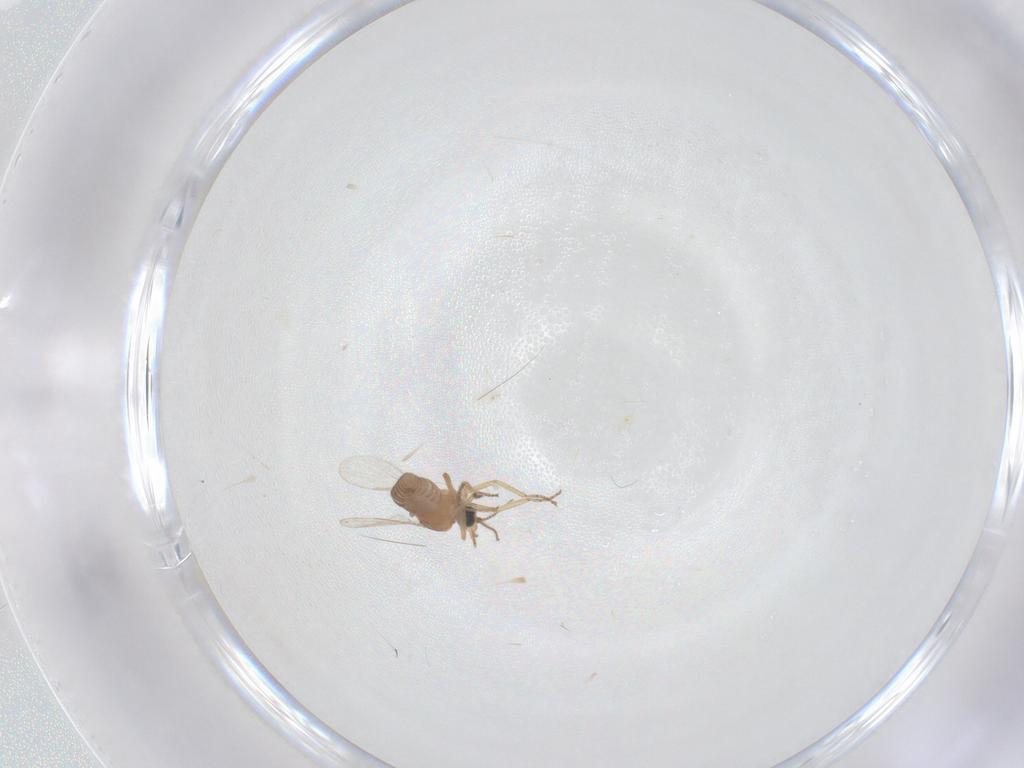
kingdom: Animalia
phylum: Arthropoda
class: Insecta
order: Diptera
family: Ceratopogonidae
